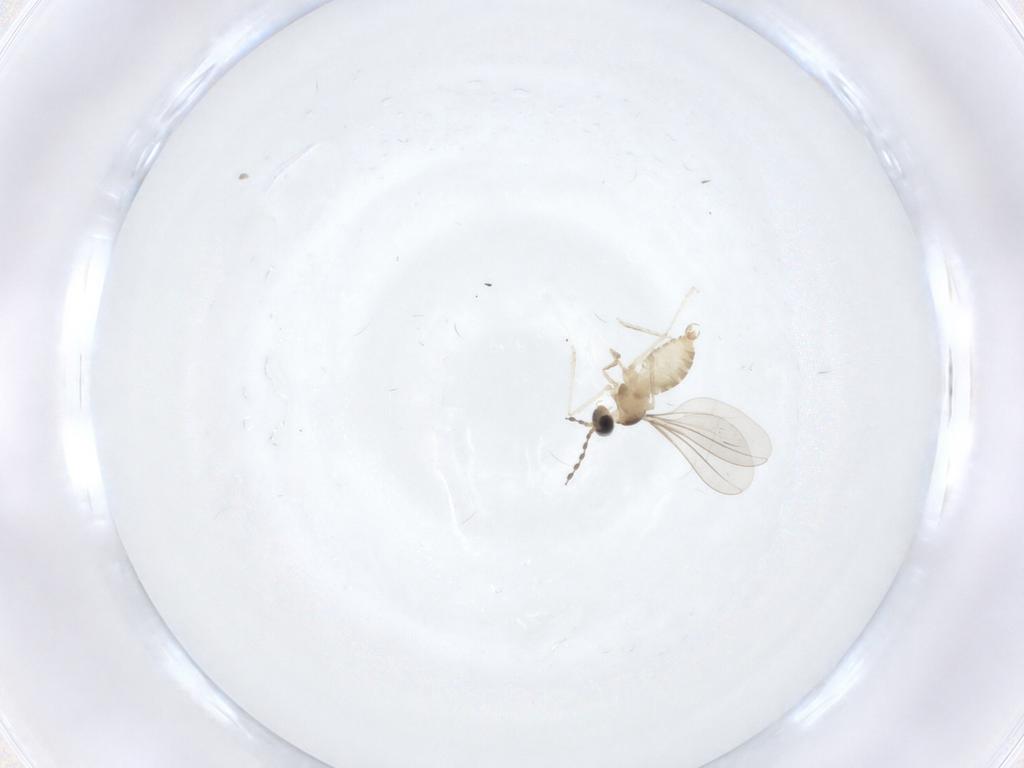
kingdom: Animalia
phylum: Arthropoda
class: Insecta
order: Diptera
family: Cecidomyiidae
